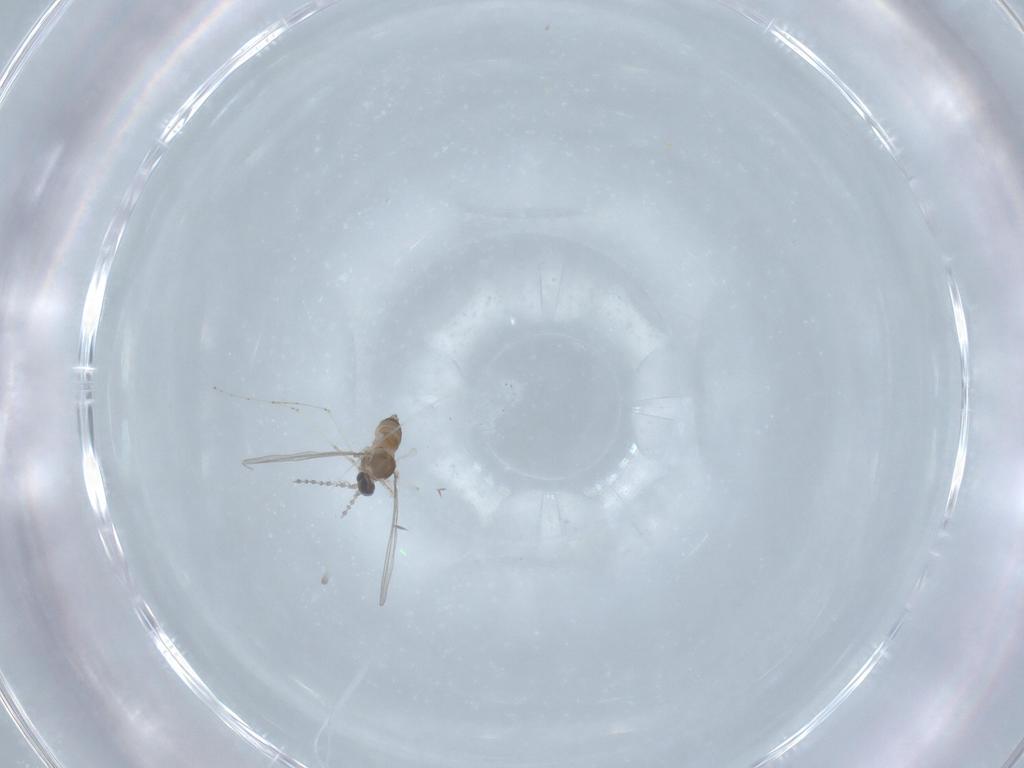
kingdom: Animalia
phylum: Arthropoda
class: Insecta
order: Diptera
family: Cecidomyiidae
